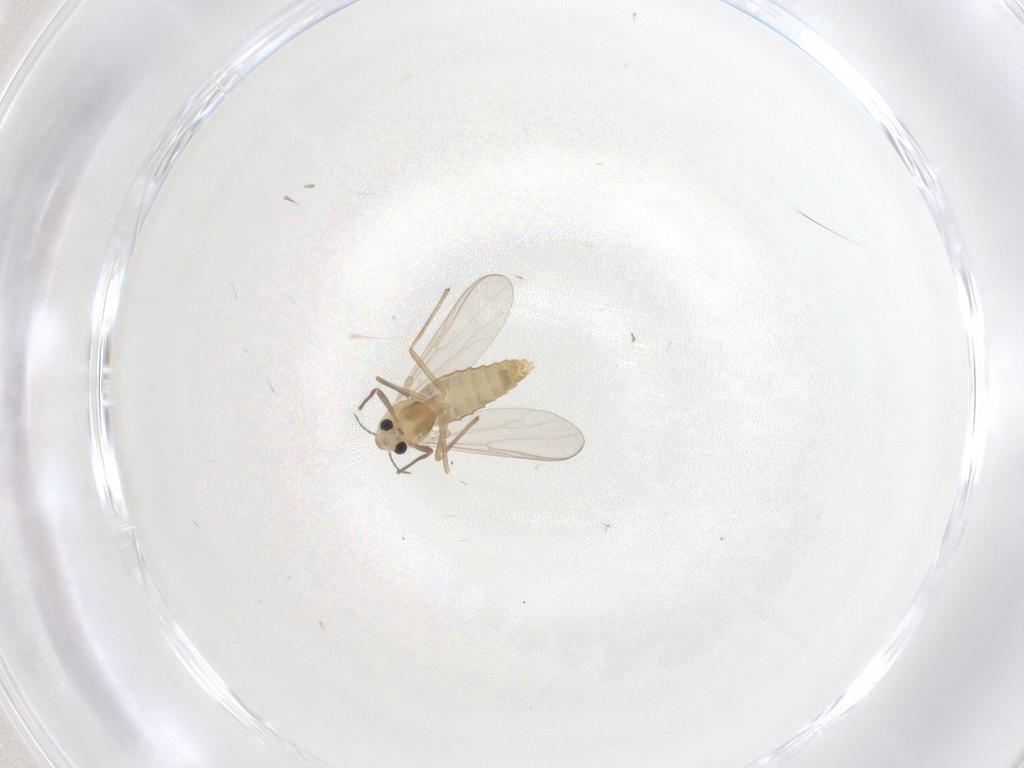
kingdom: Animalia
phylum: Arthropoda
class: Insecta
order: Diptera
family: Chironomidae
